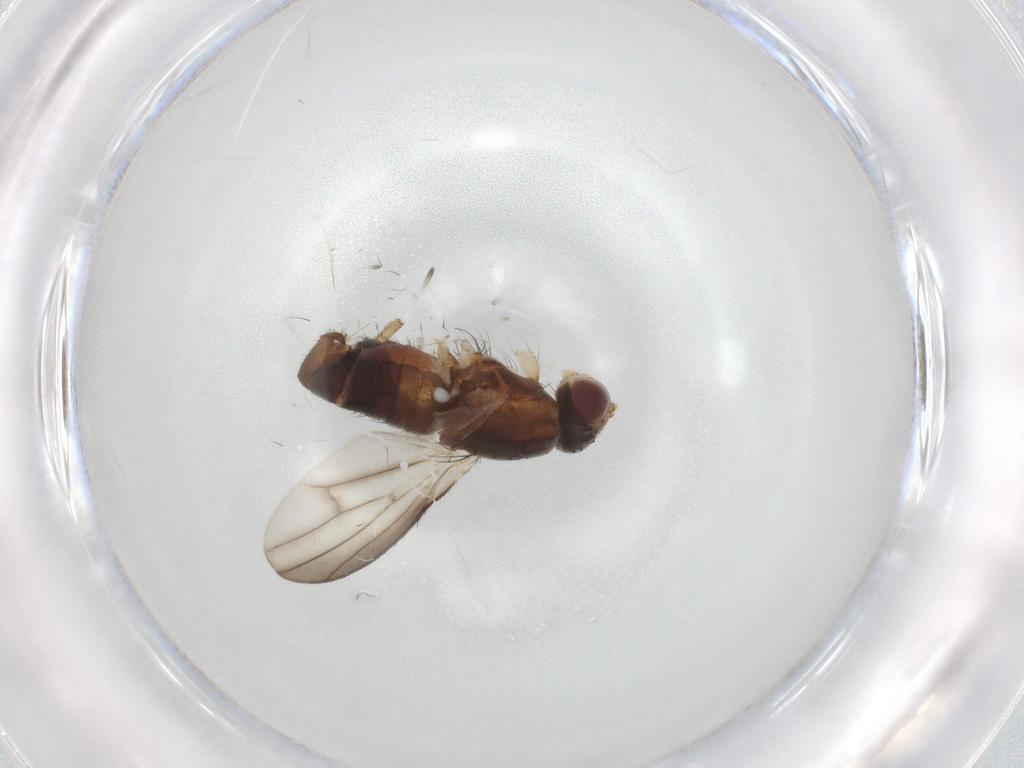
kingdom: Animalia
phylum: Arthropoda
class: Insecta
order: Diptera
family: Heleomyzidae
